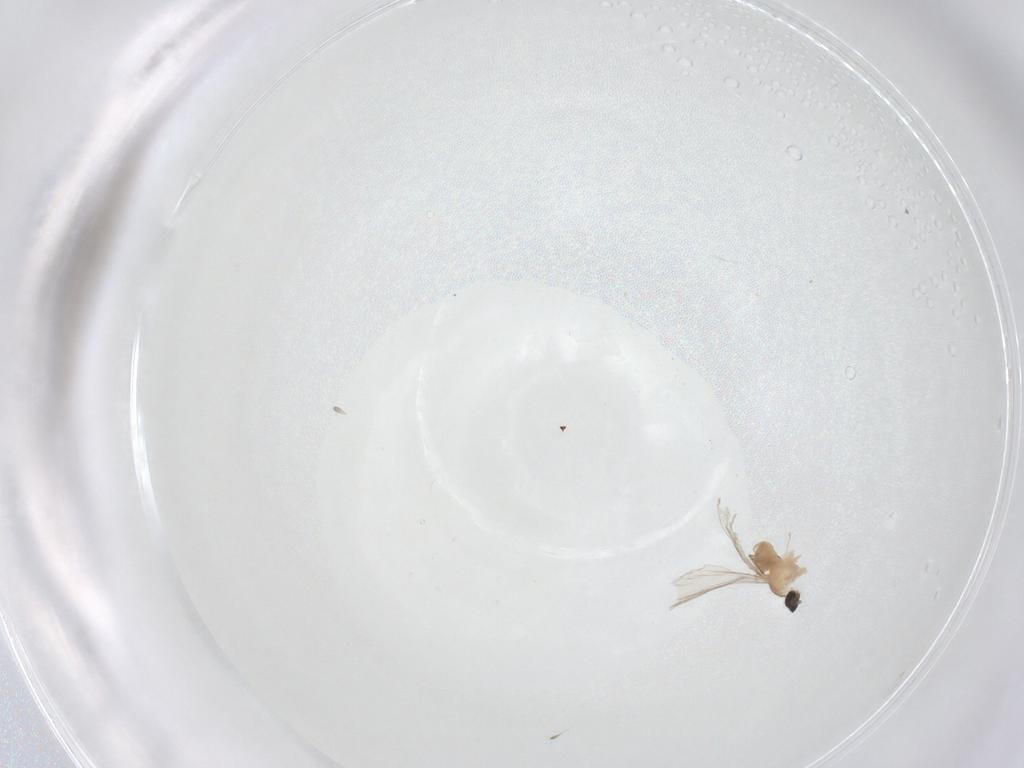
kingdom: Animalia
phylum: Arthropoda
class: Insecta
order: Diptera
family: Cecidomyiidae
